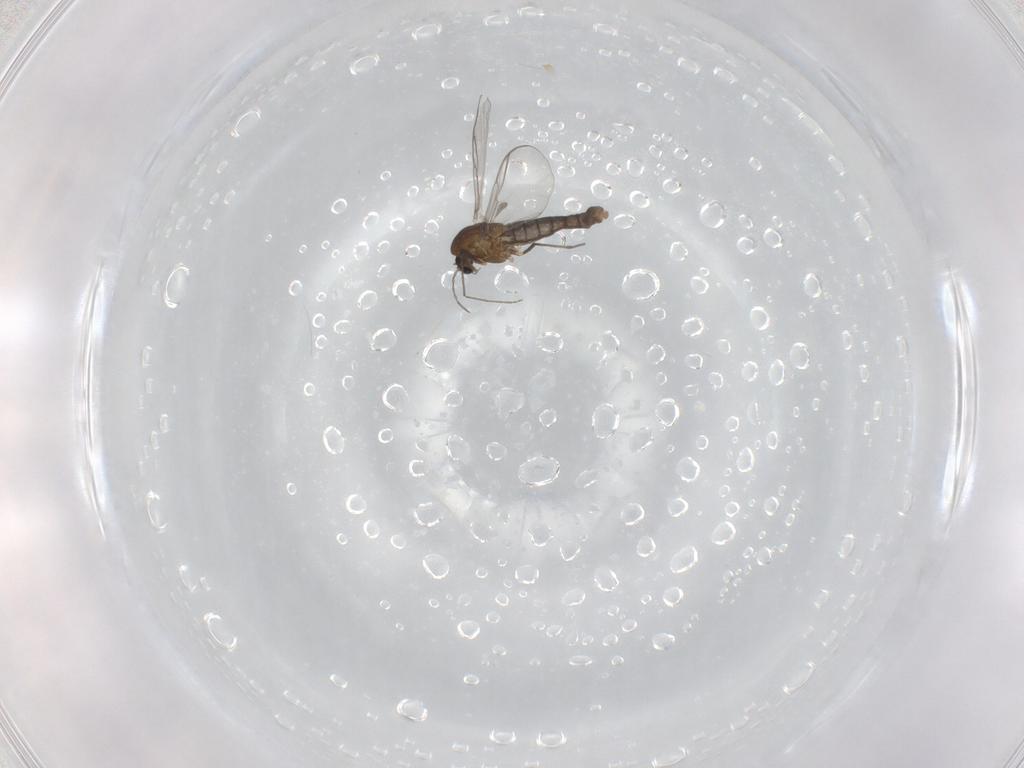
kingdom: Animalia
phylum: Arthropoda
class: Insecta
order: Diptera
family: Chironomidae
